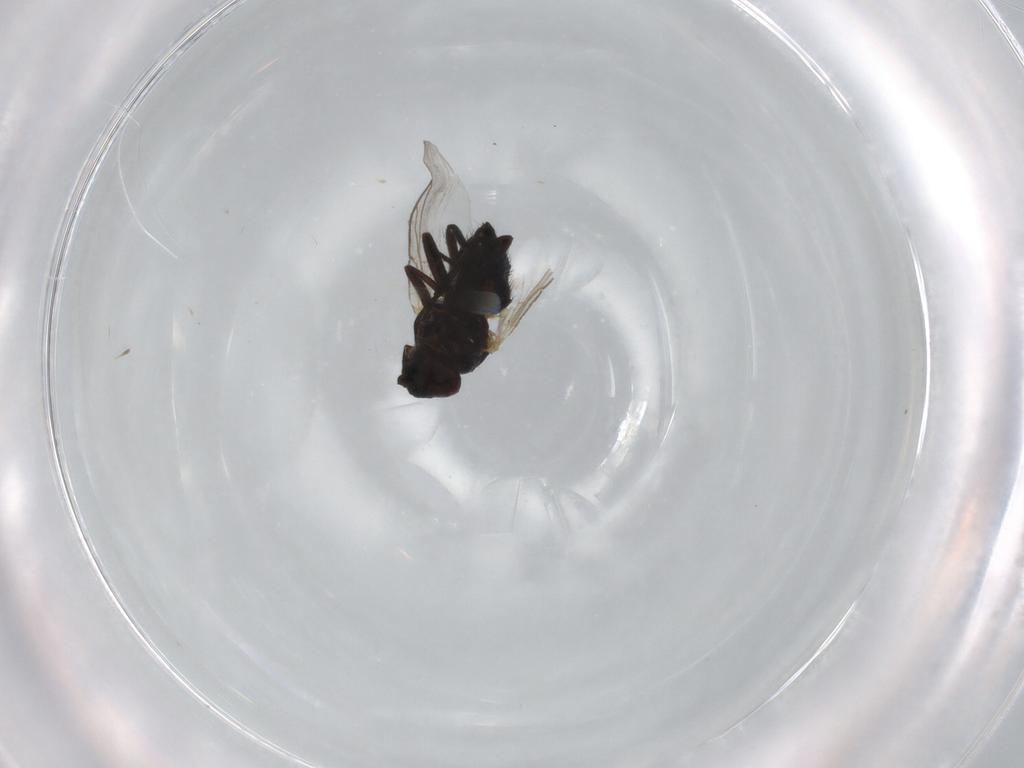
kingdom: Animalia
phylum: Arthropoda
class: Insecta
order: Diptera
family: Agromyzidae
